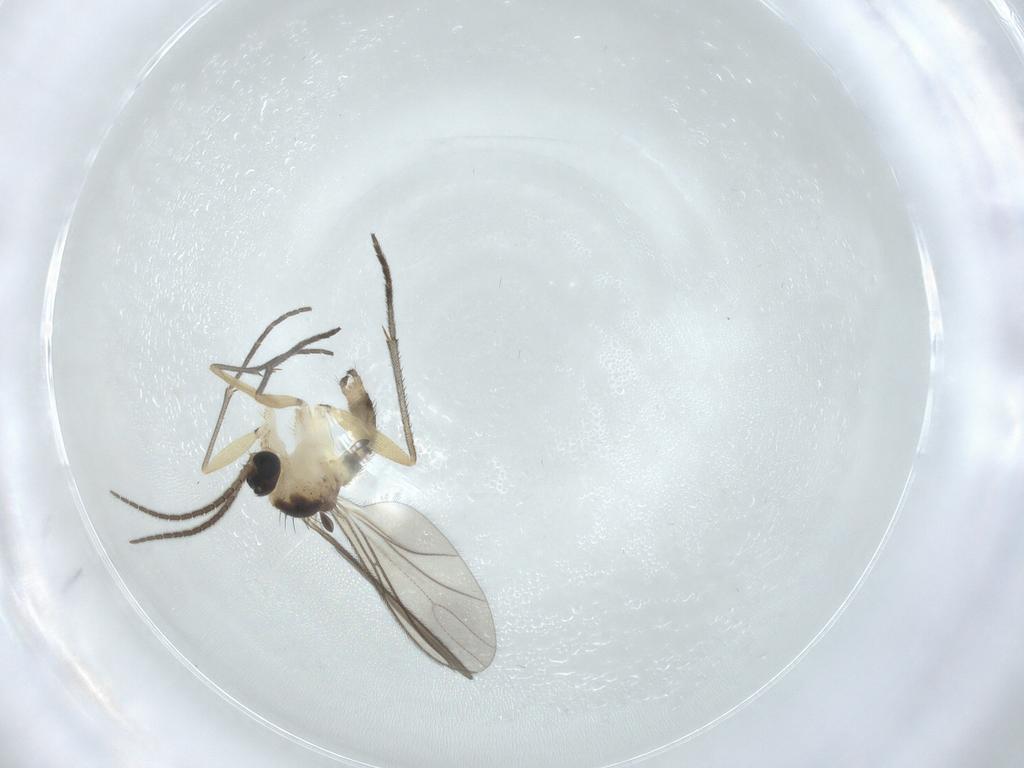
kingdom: Animalia
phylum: Arthropoda
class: Insecta
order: Diptera
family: Sciaridae
